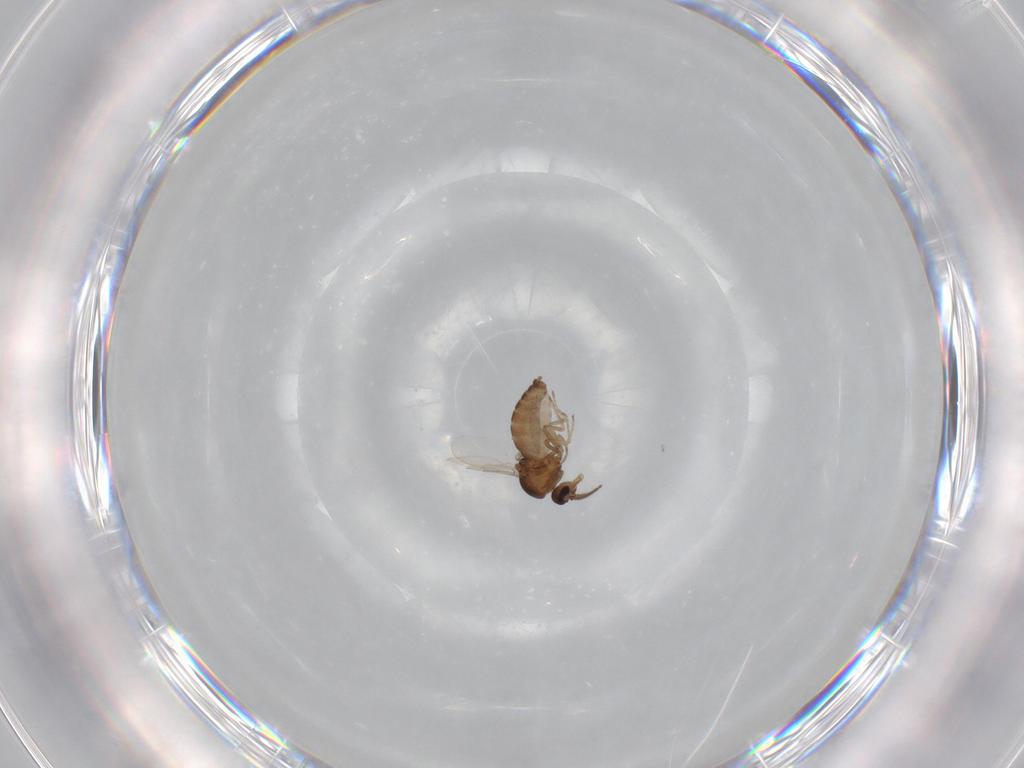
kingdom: Animalia
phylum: Arthropoda
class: Insecta
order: Diptera
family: Ceratopogonidae
